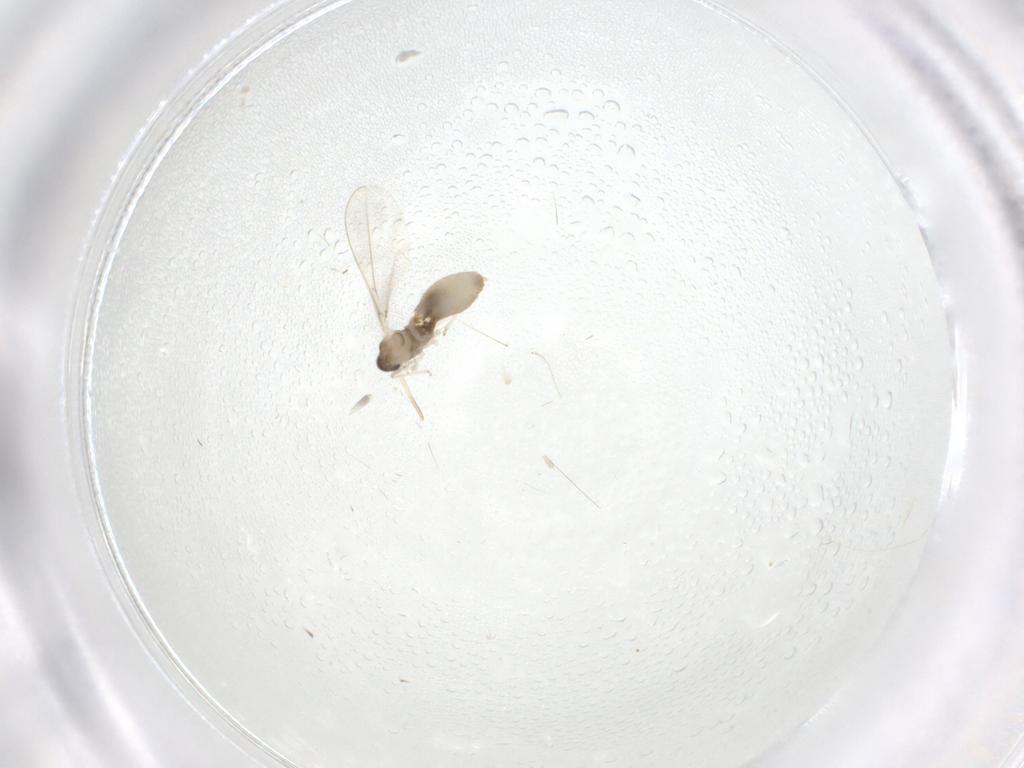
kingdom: Animalia
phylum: Arthropoda
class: Insecta
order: Diptera
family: Cecidomyiidae
